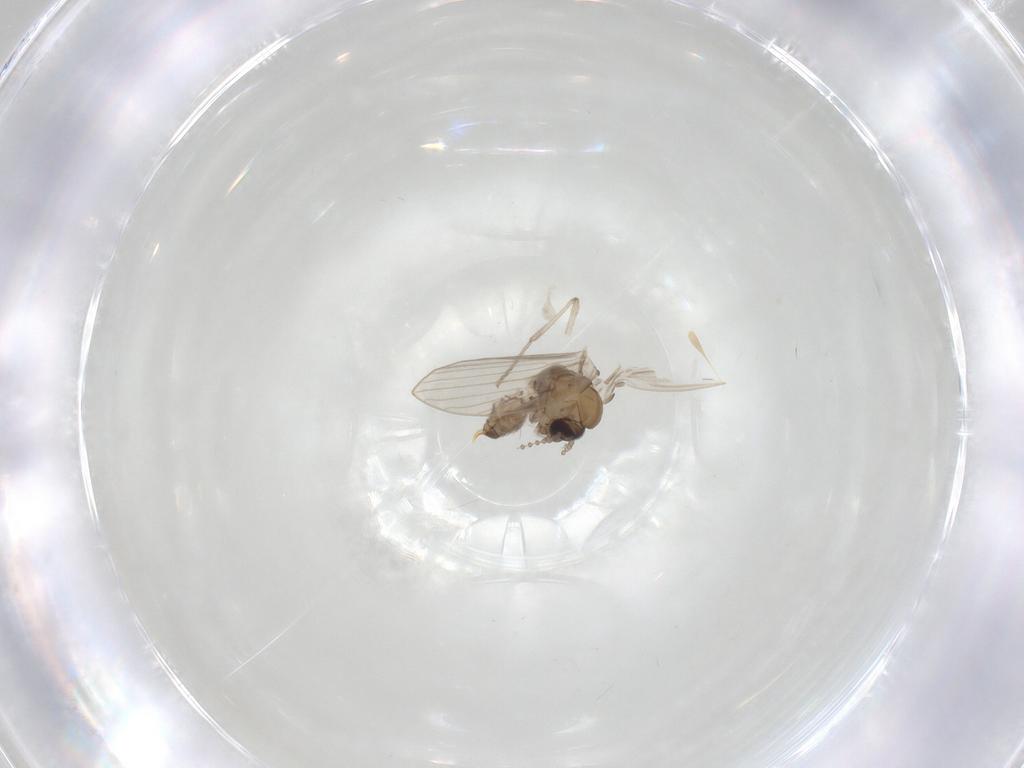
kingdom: Animalia
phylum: Arthropoda
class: Insecta
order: Diptera
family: Psychodidae
